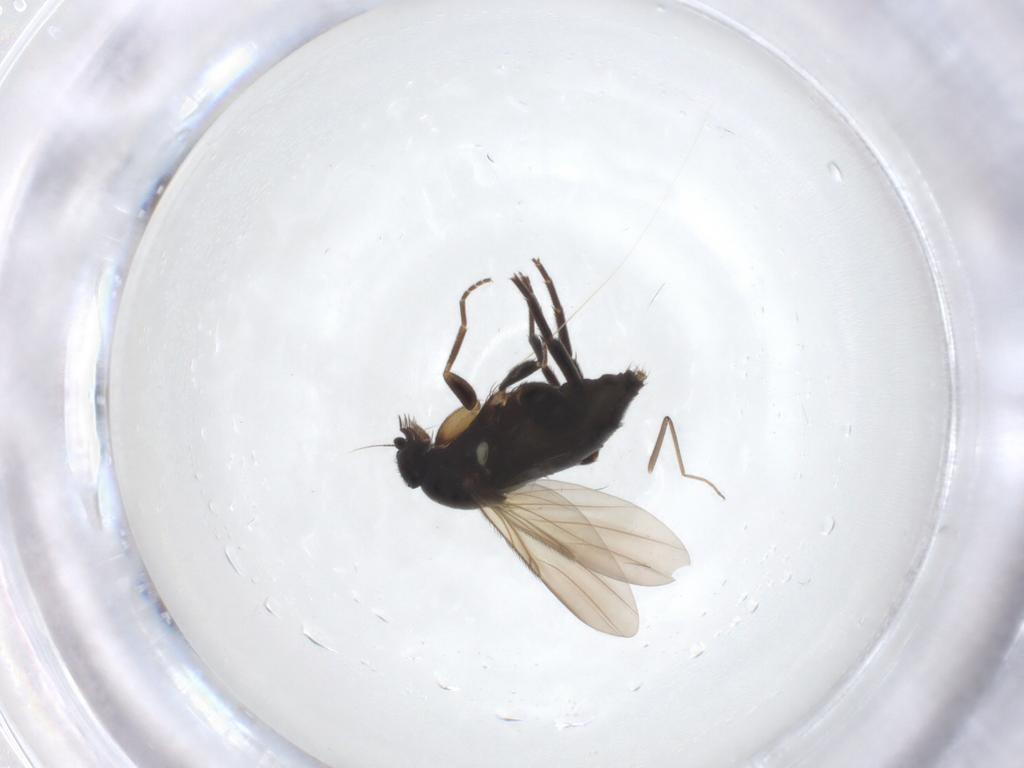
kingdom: Animalia
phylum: Arthropoda
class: Insecta
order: Diptera
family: Phoridae
